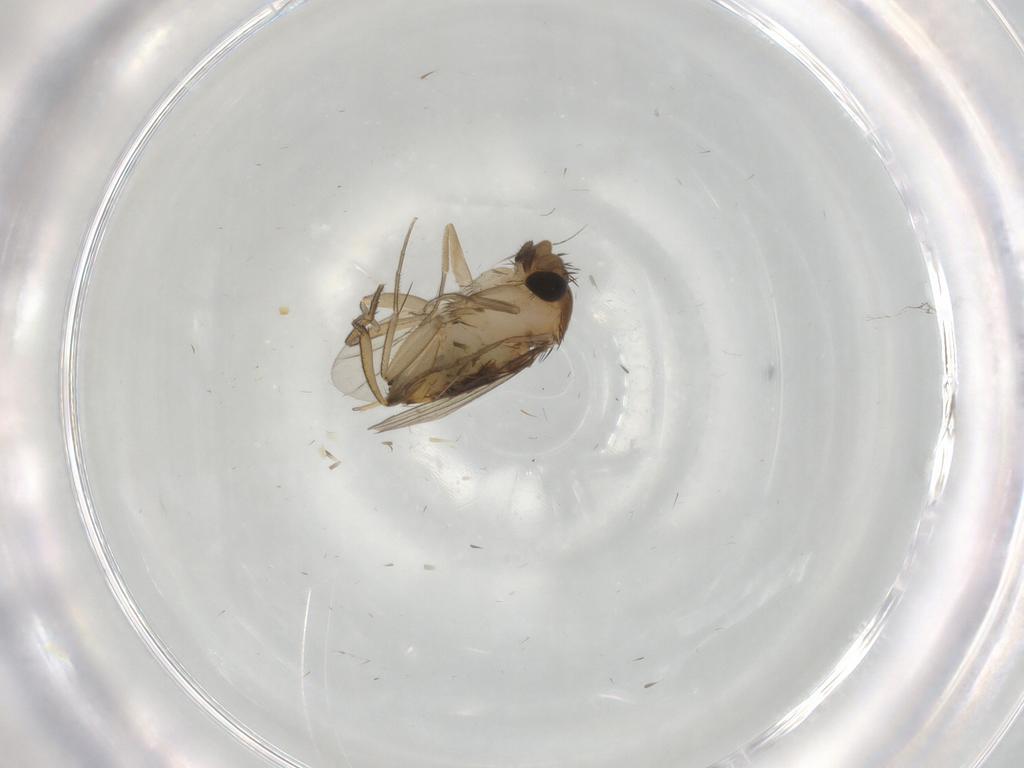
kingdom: Animalia
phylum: Arthropoda
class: Insecta
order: Diptera
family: Phoridae
